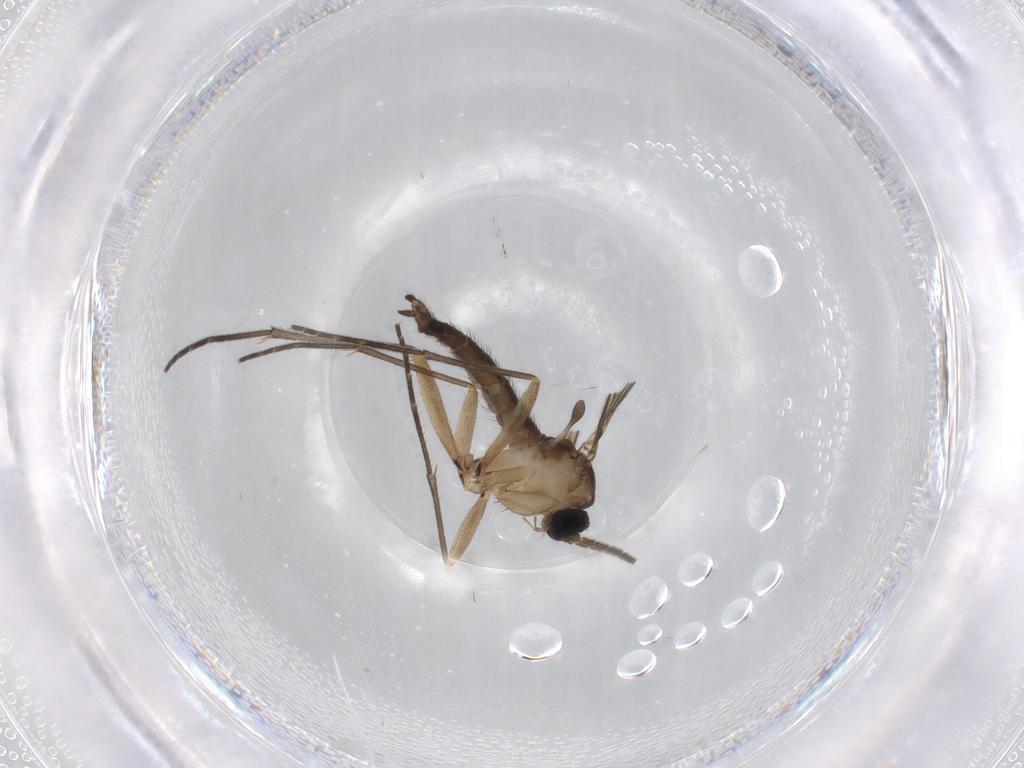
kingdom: Animalia
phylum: Arthropoda
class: Insecta
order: Diptera
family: Sciaridae
